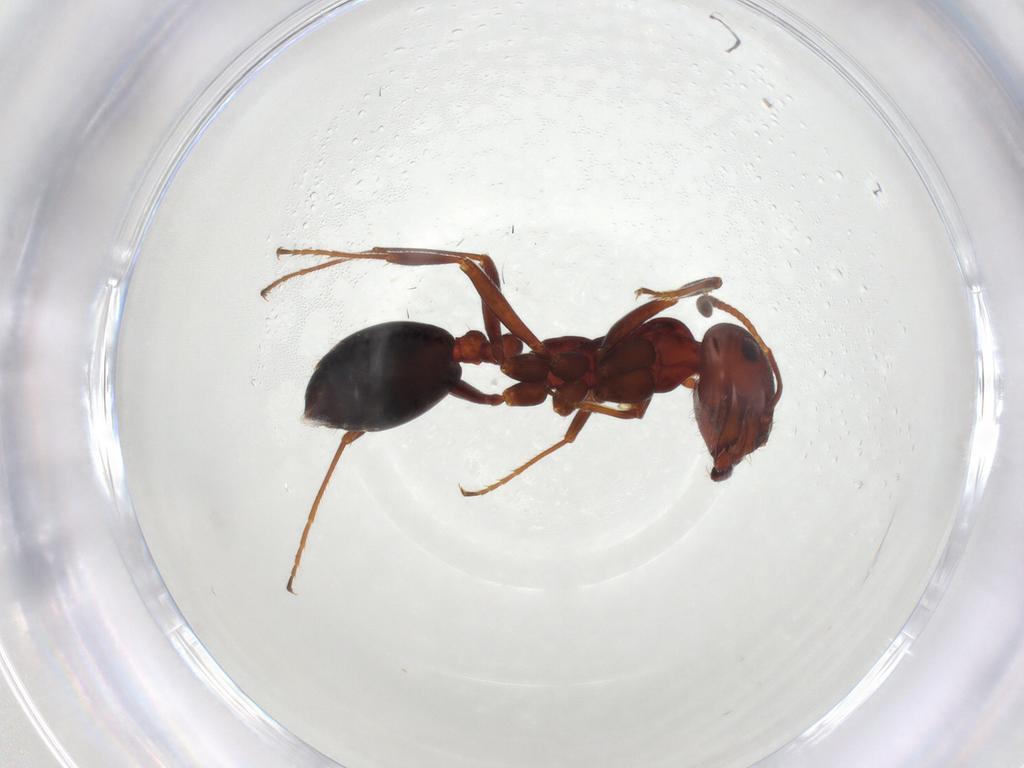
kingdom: Animalia
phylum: Arthropoda
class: Insecta
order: Hymenoptera
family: Formicidae
